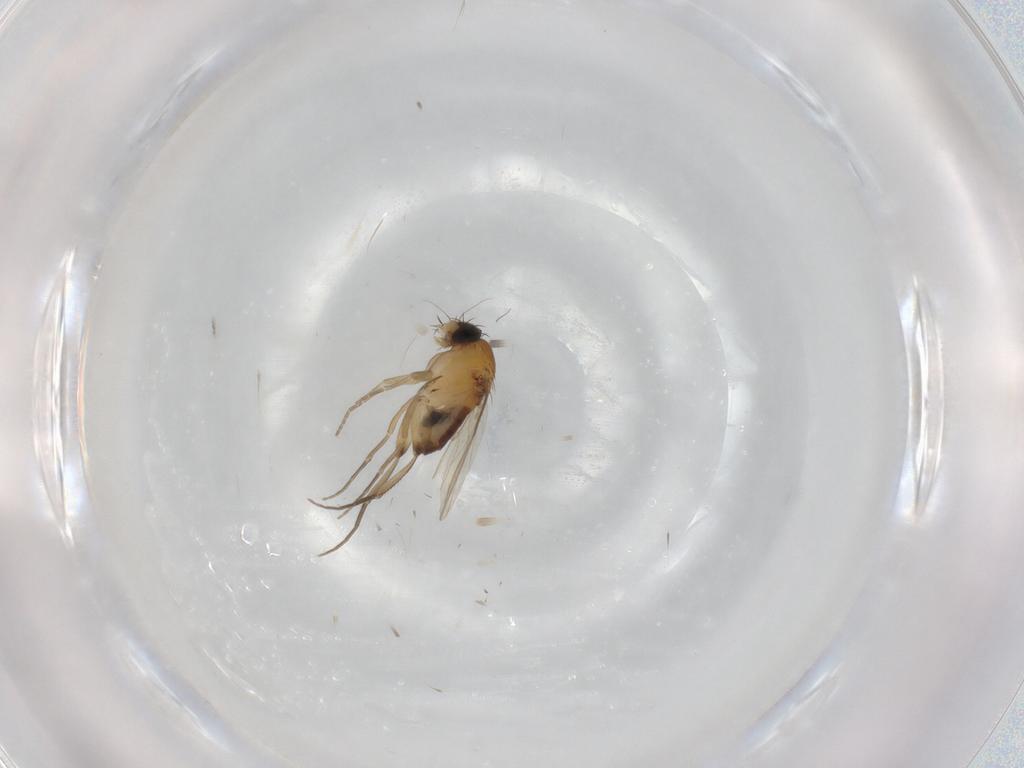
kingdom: Animalia
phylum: Arthropoda
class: Insecta
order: Diptera
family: Phoridae
